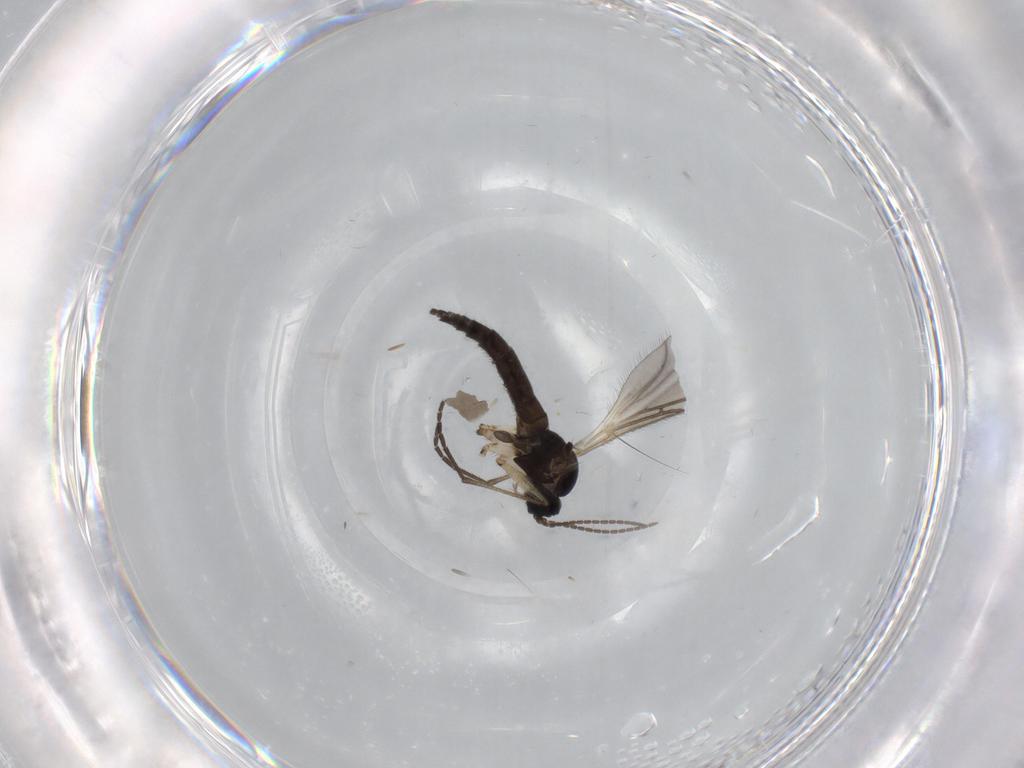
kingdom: Animalia
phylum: Arthropoda
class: Insecta
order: Diptera
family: Sciaridae
